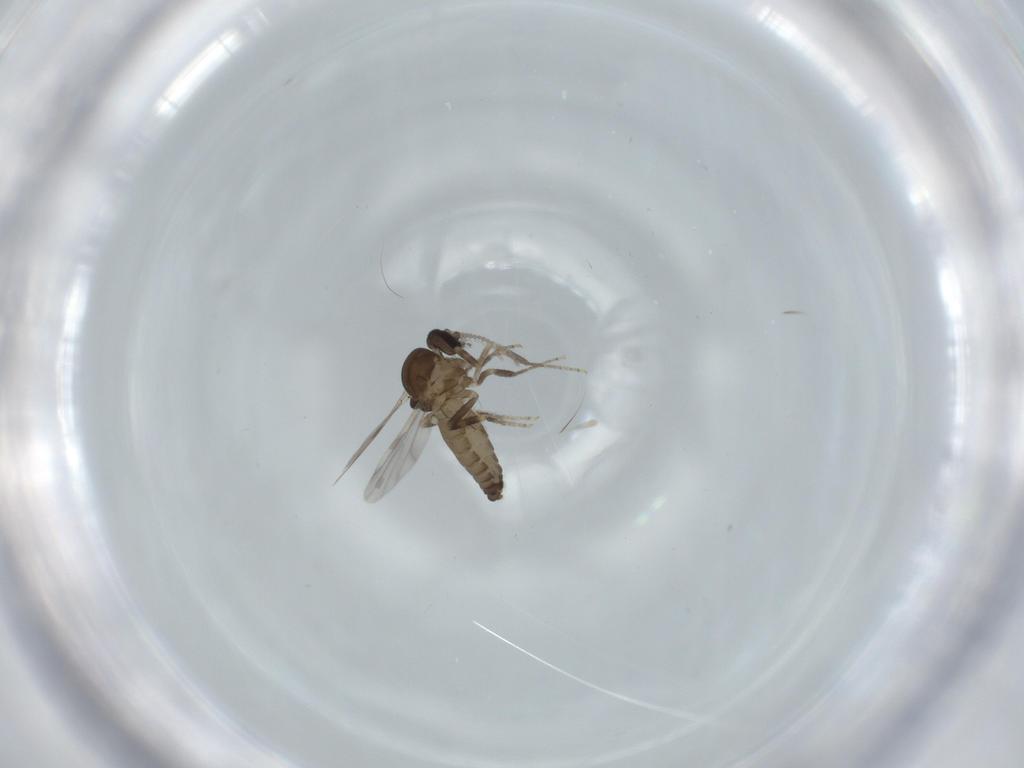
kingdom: Animalia
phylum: Arthropoda
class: Insecta
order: Diptera
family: Ceratopogonidae
